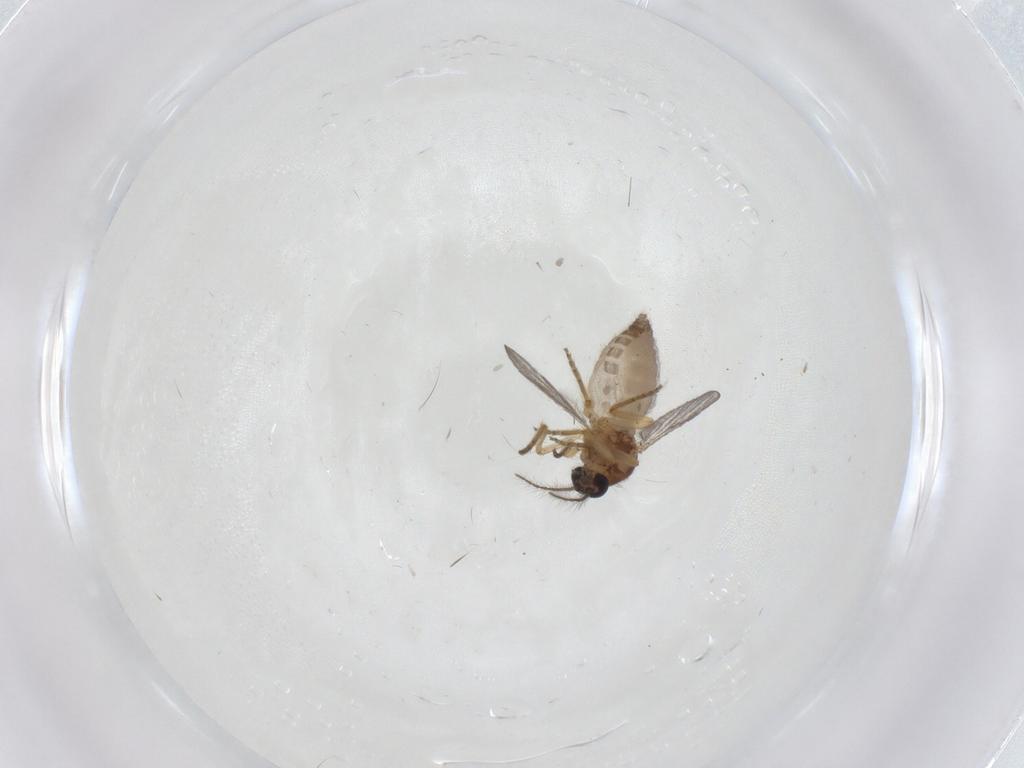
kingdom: Animalia
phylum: Arthropoda
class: Insecta
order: Diptera
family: Ceratopogonidae
